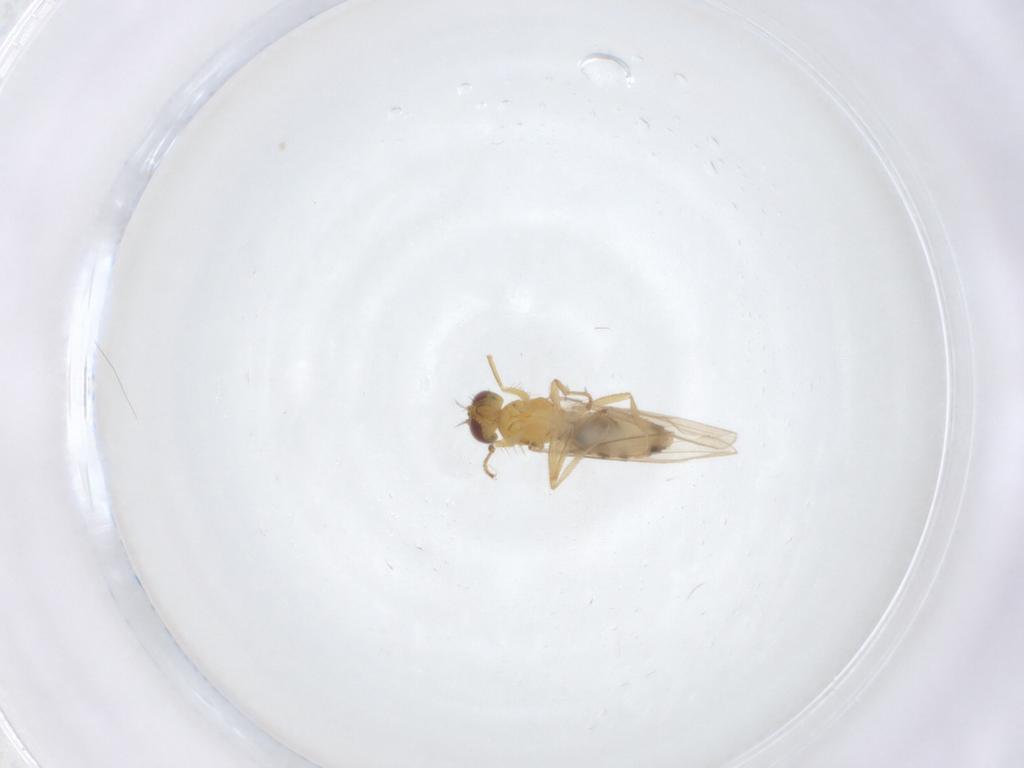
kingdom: Animalia
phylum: Arthropoda
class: Insecta
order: Diptera
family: Periscelididae
